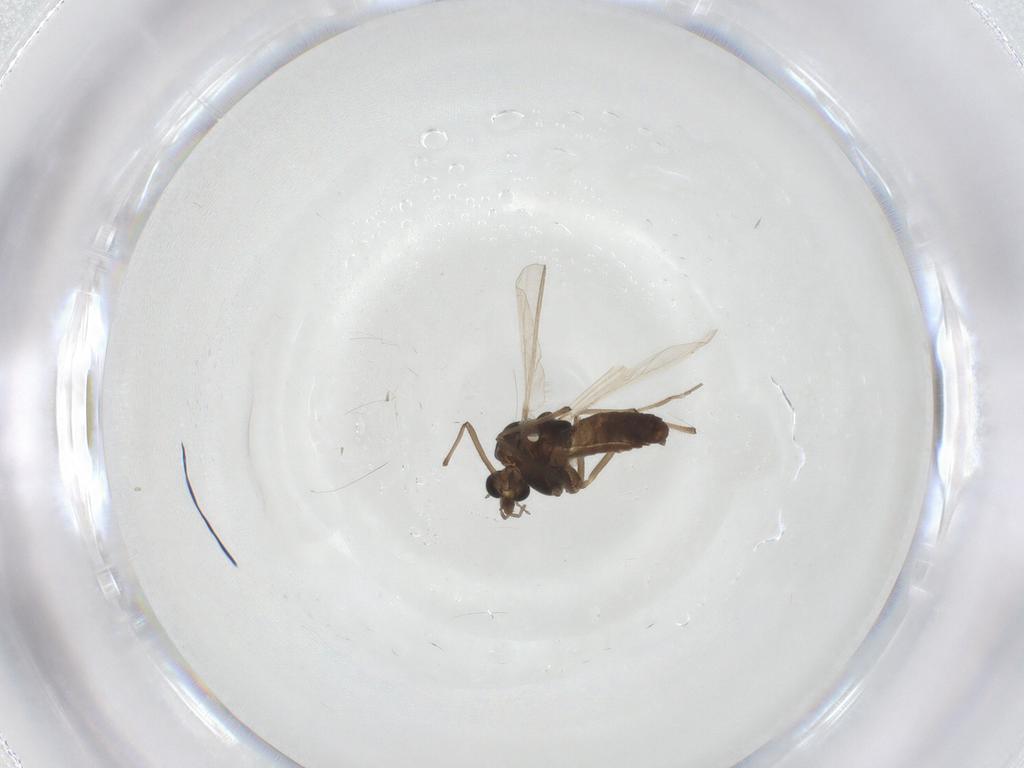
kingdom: Animalia
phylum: Arthropoda
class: Insecta
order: Diptera
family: Chironomidae
